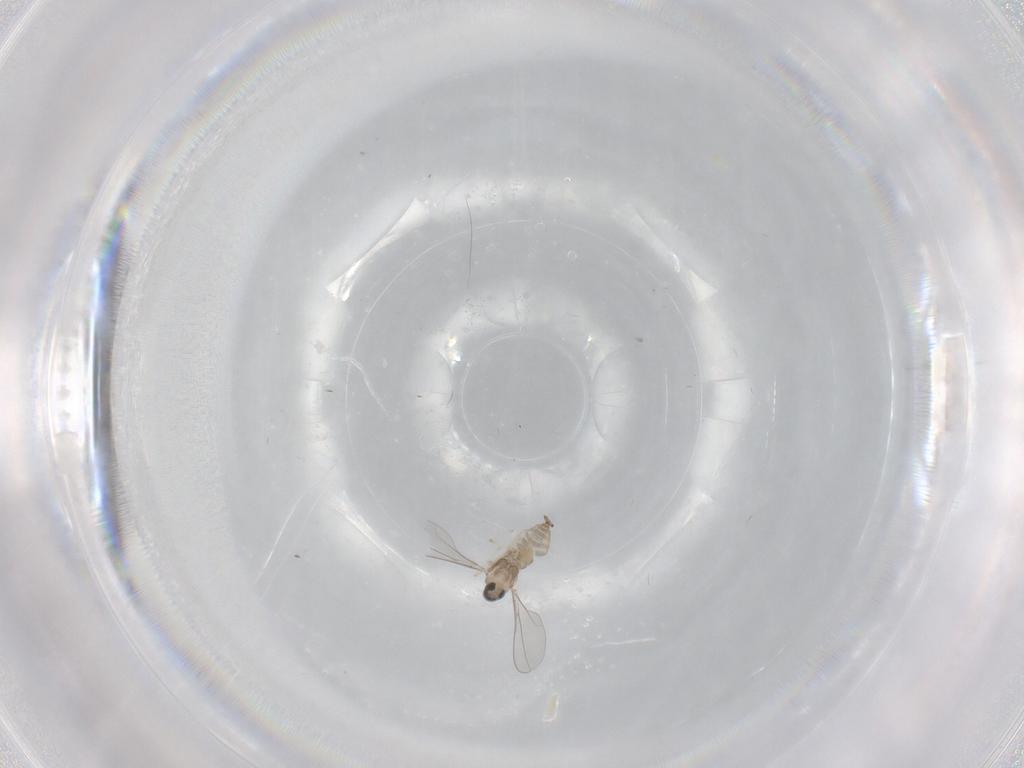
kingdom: Animalia
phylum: Arthropoda
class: Insecta
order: Diptera
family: Cecidomyiidae
